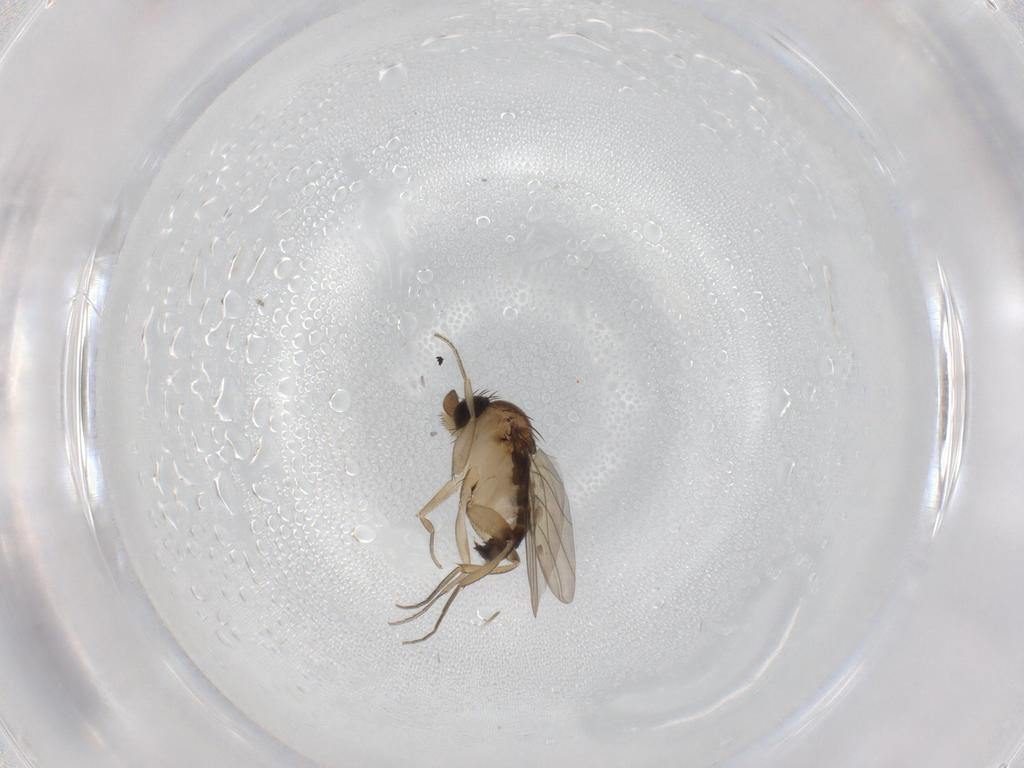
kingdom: Animalia
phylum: Arthropoda
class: Insecta
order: Diptera
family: Phoridae
